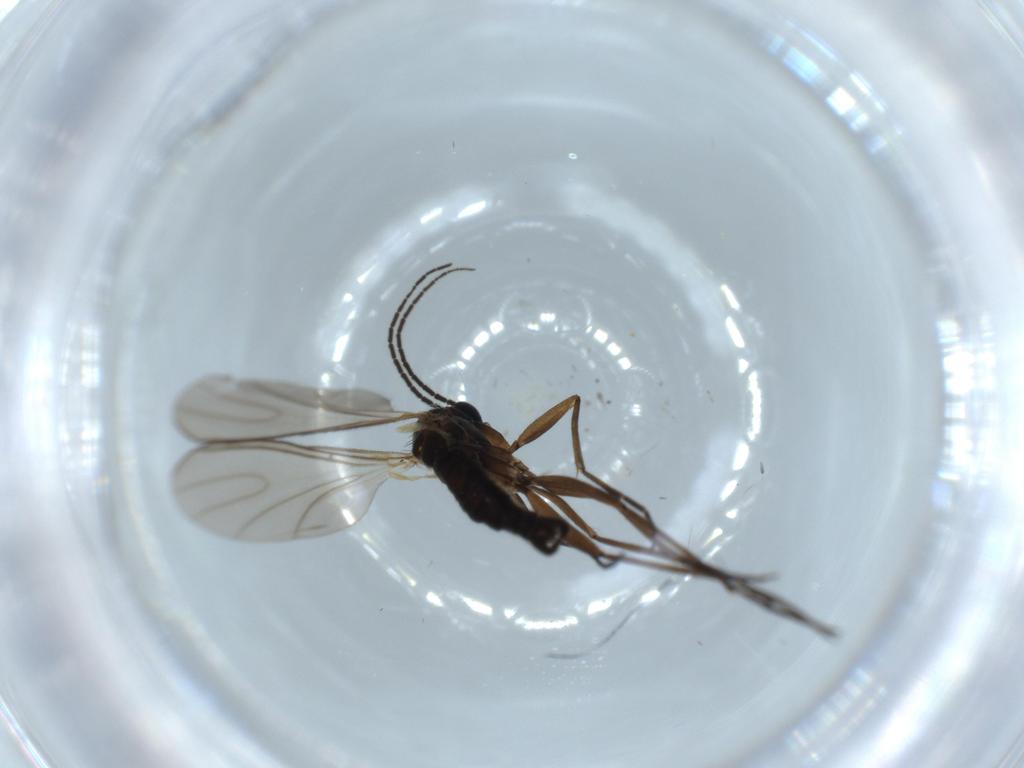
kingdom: Animalia
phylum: Arthropoda
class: Insecta
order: Diptera
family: Sciaridae
